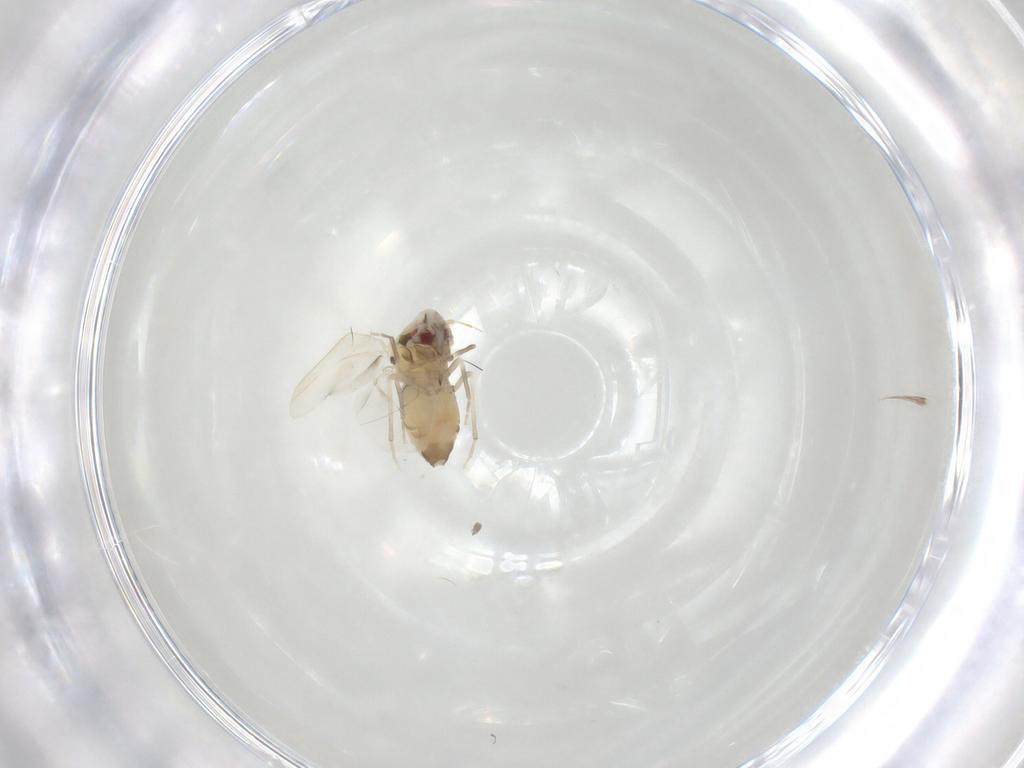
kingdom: Animalia
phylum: Arthropoda
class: Insecta
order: Hemiptera
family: Aleyrodidae
